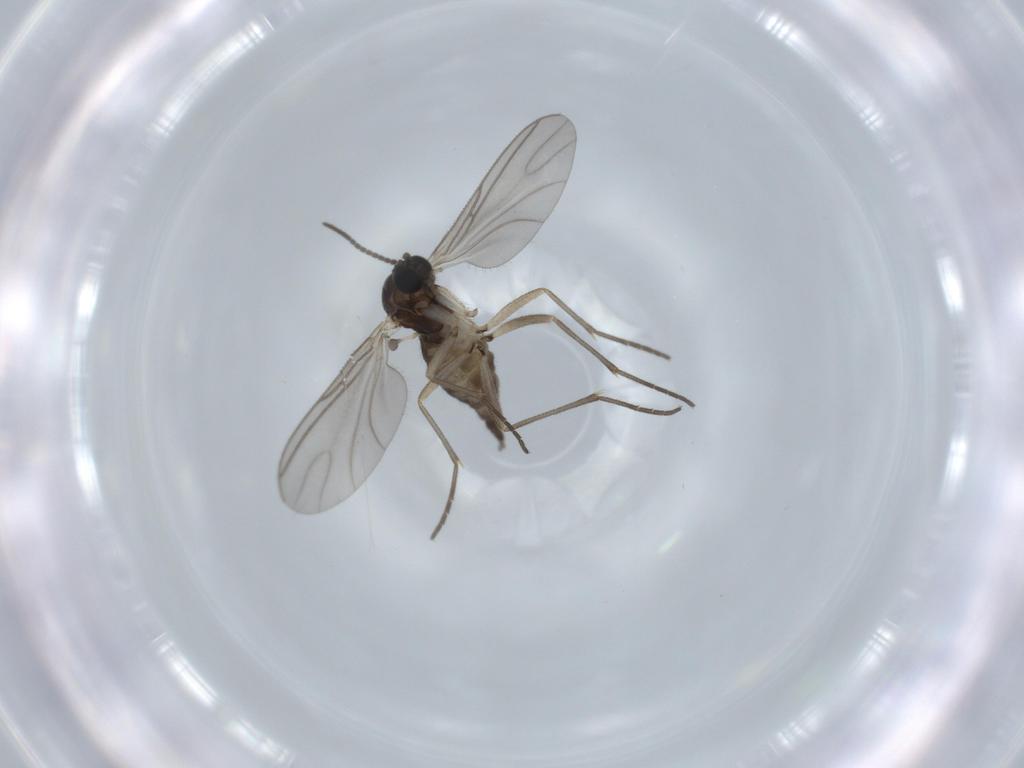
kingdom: Animalia
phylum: Arthropoda
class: Insecta
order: Diptera
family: Sciaridae
